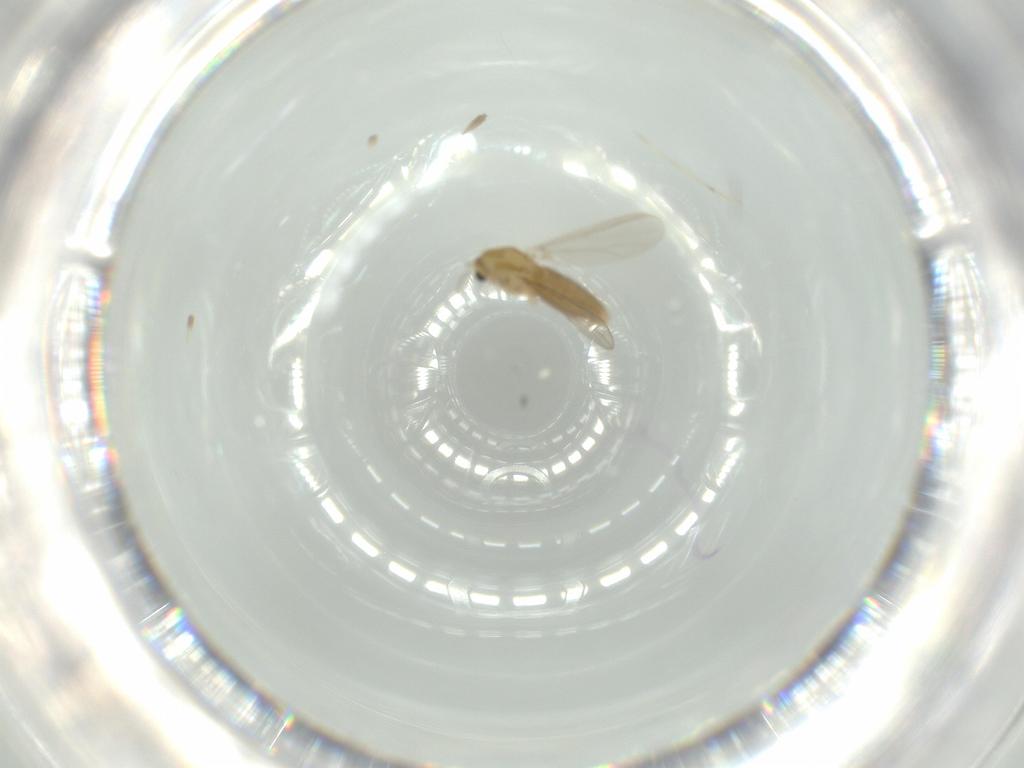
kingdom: Animalia
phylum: Arthropoda
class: Insecta
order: Diptera
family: Chironomidae
